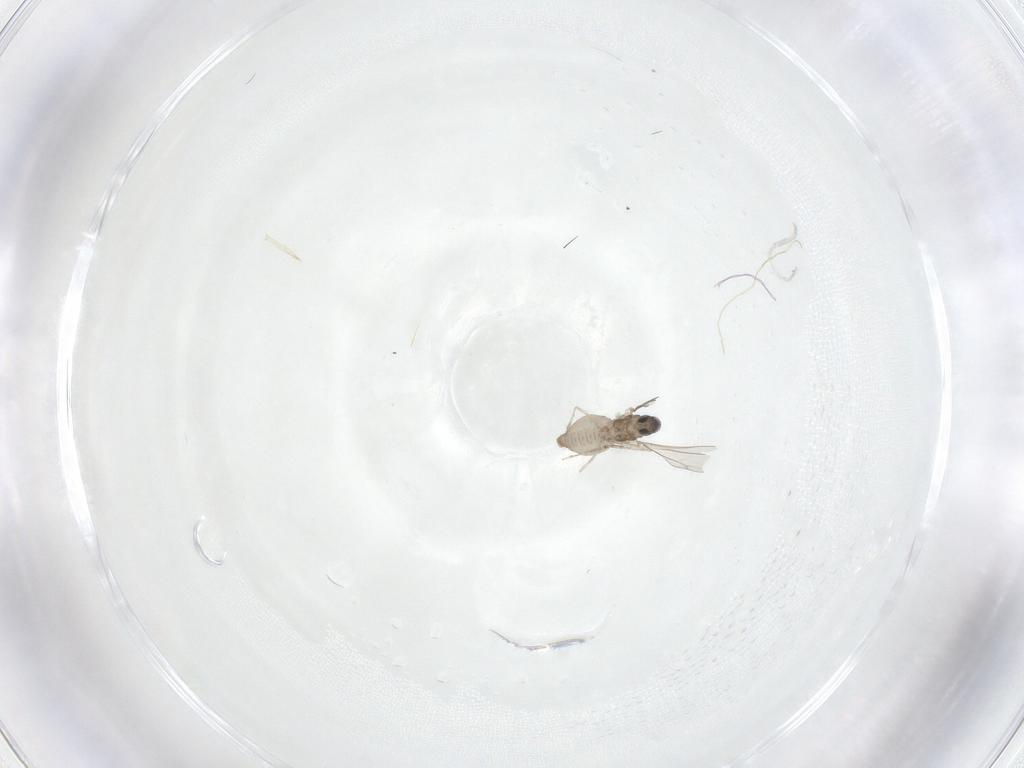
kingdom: Animalia
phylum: Arthropoda
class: Insecta
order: Diptera
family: Cecidomyiidae
